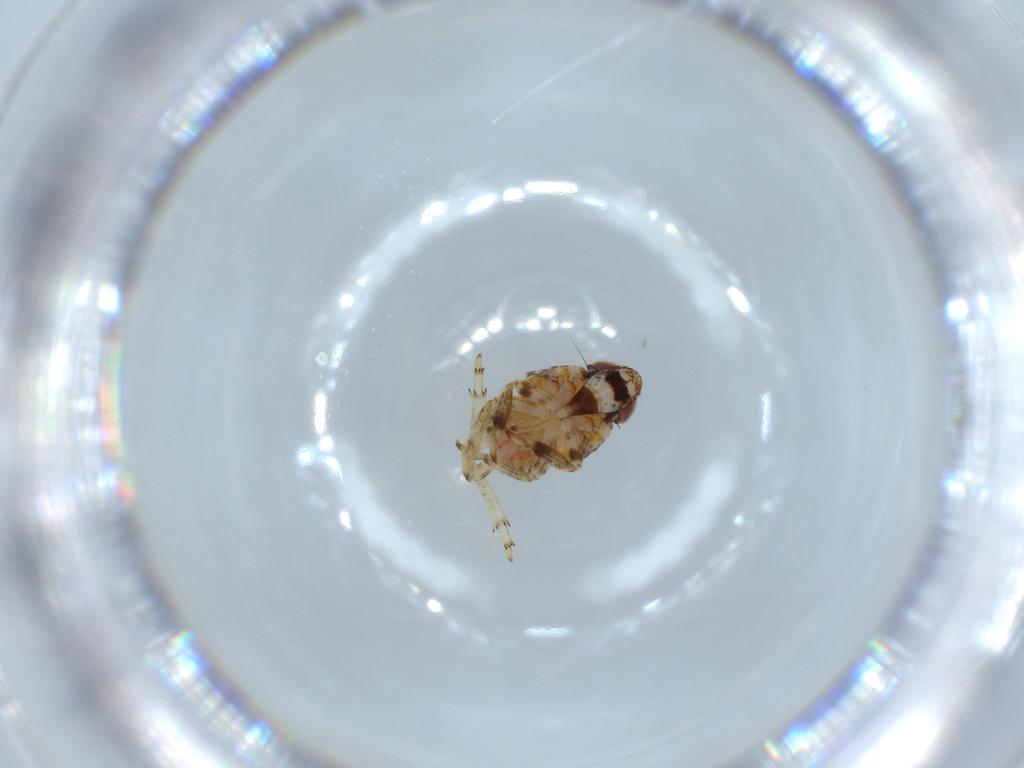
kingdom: Animalia
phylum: Arthropoda
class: Insecta
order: Hemiptera
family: Issidae
